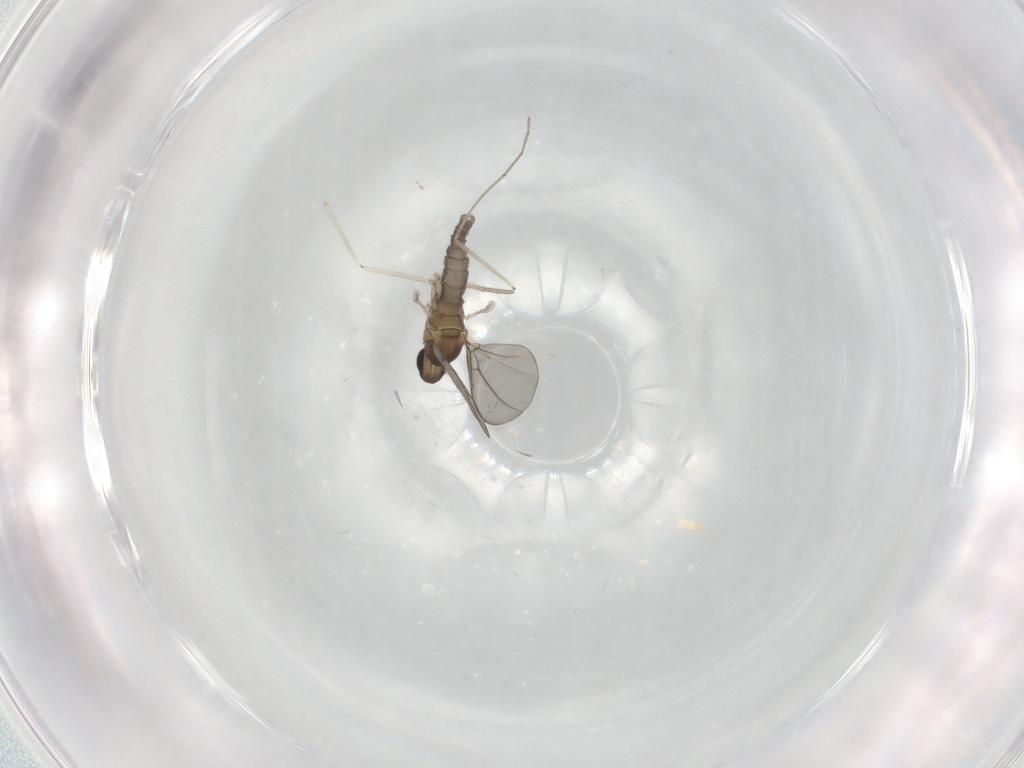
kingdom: Animalia
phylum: Arthropoda
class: Insecta
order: Diptera
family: Cecidomyiidae
